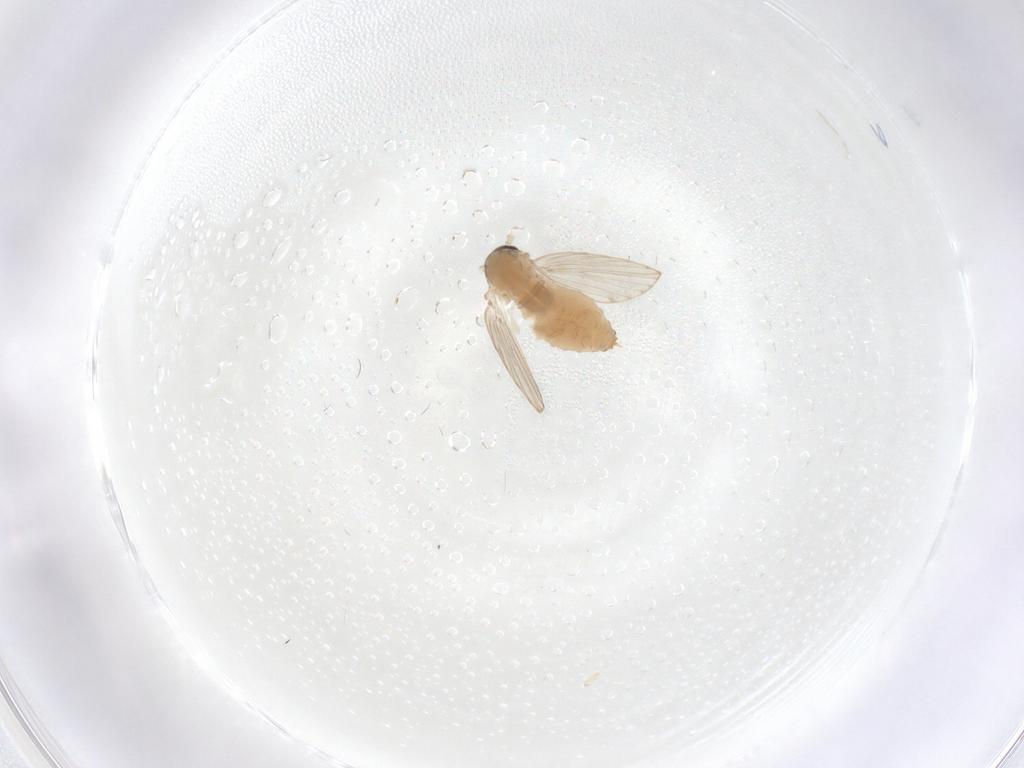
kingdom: Animalia
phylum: Arthropoda
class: Insecta
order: Diptera
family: Psychodidae
